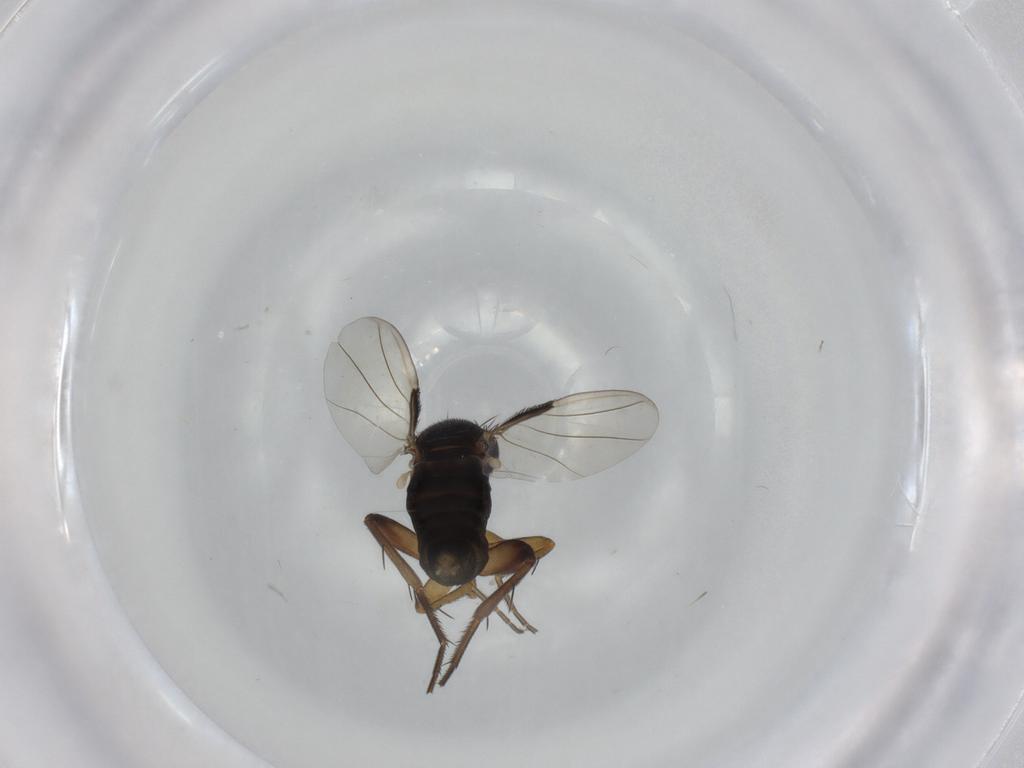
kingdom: Animalia
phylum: Arthropoda
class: Insecta
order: Diptera
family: Phoridae
